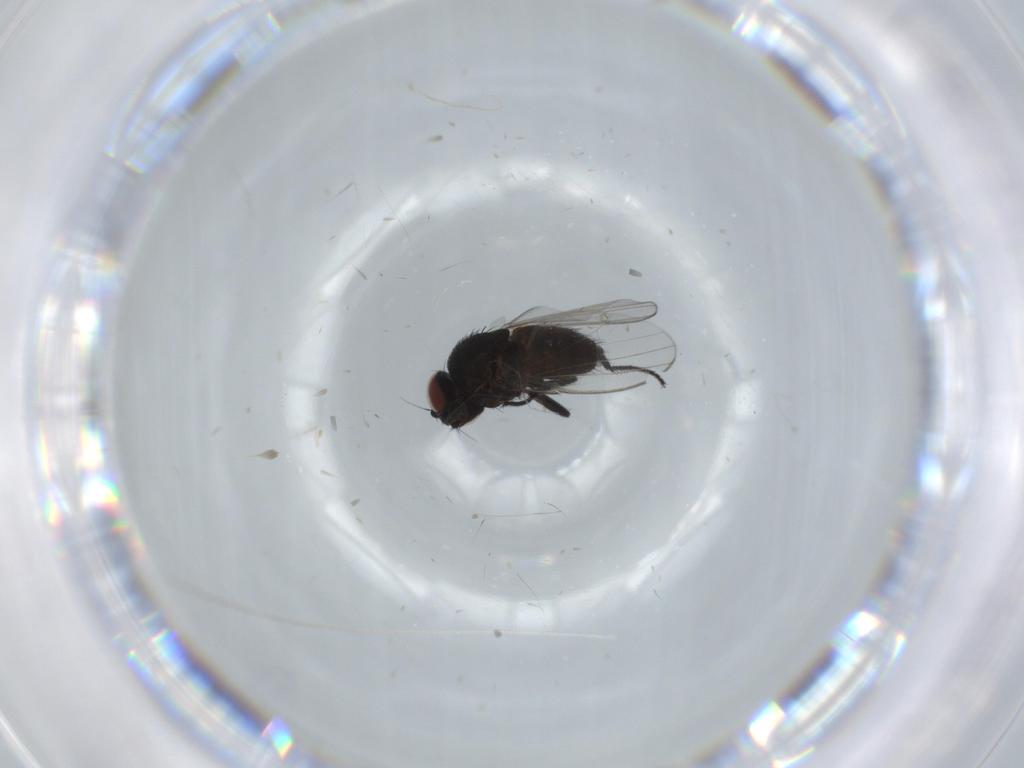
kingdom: Animalia
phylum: Arthropoda
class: Insecta
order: Diptera
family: Milichiidae
